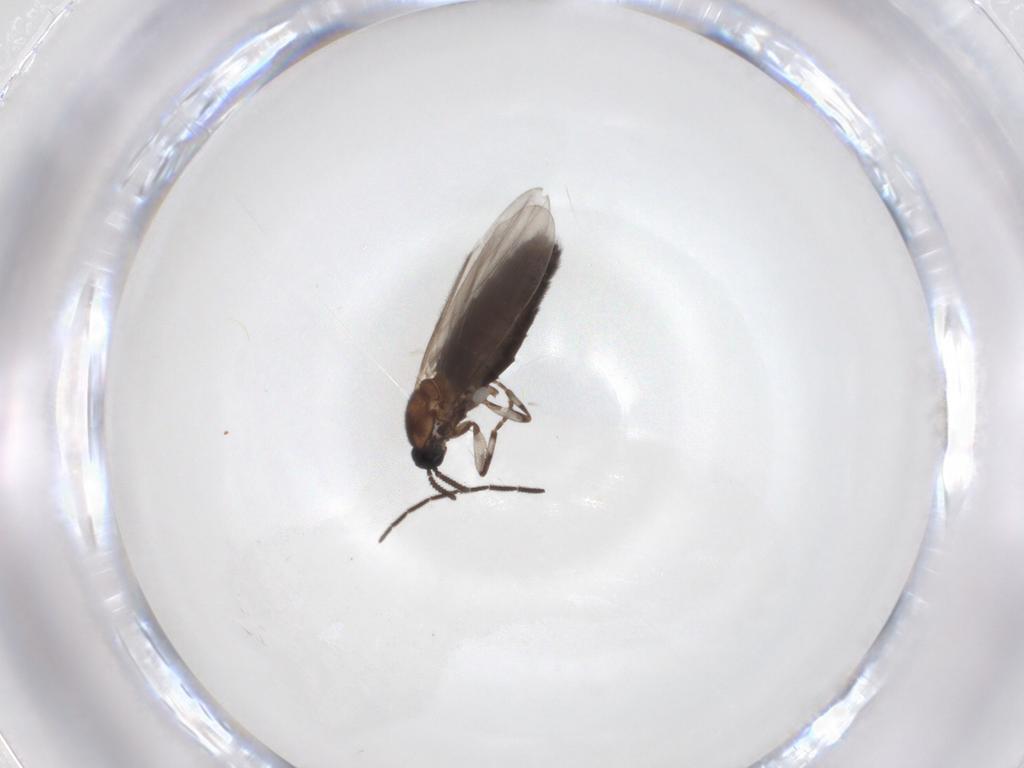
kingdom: Animalia
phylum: Arthropoda
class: Insecta
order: Diptera
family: Scatopsidae
